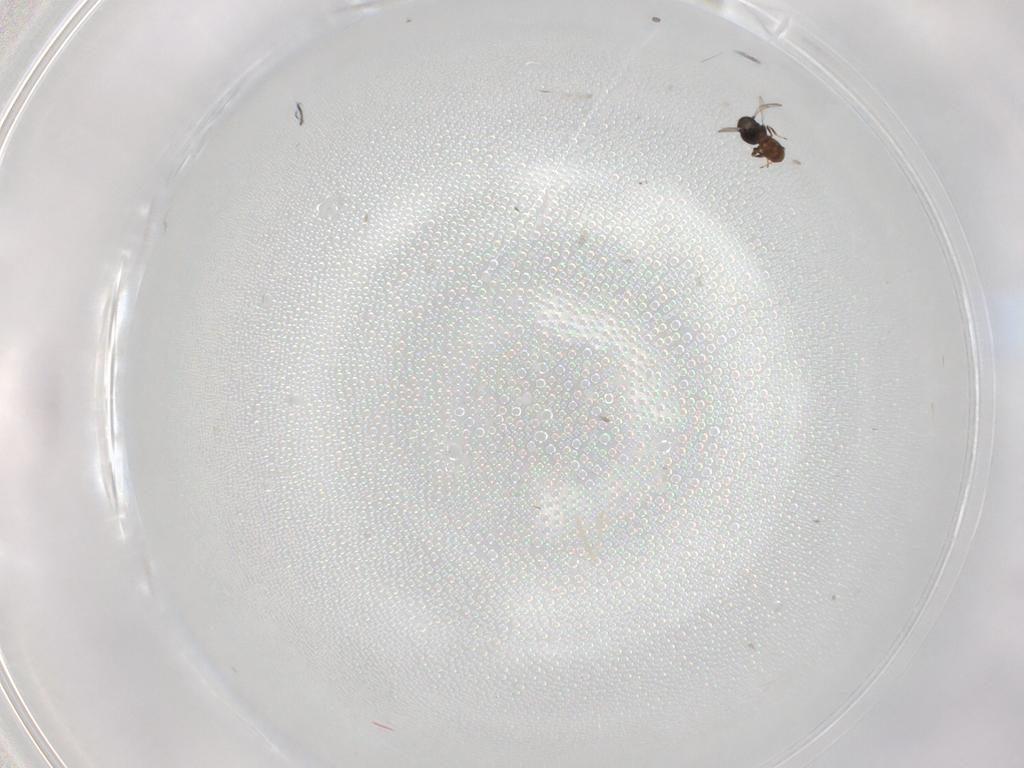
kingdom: Animalia
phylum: Arthropoda
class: Insecta
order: Hymenoptera
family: Scelionidae
